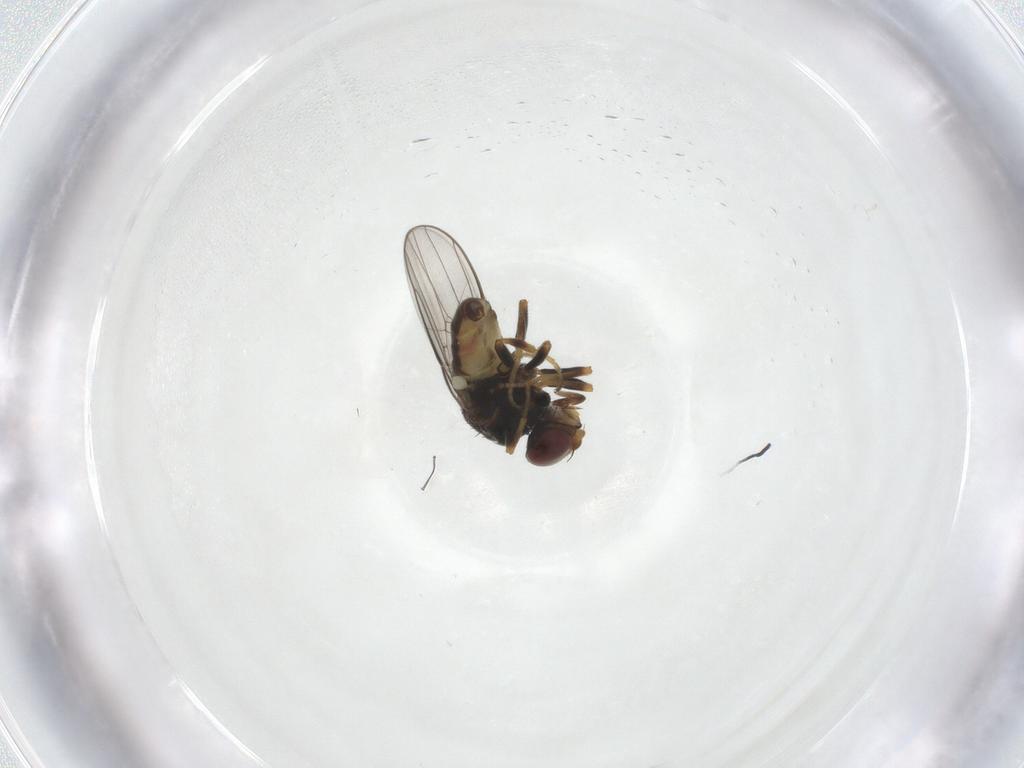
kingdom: Animalia
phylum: Arthropoda
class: Insecta
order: Diptera
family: Chloropidae
